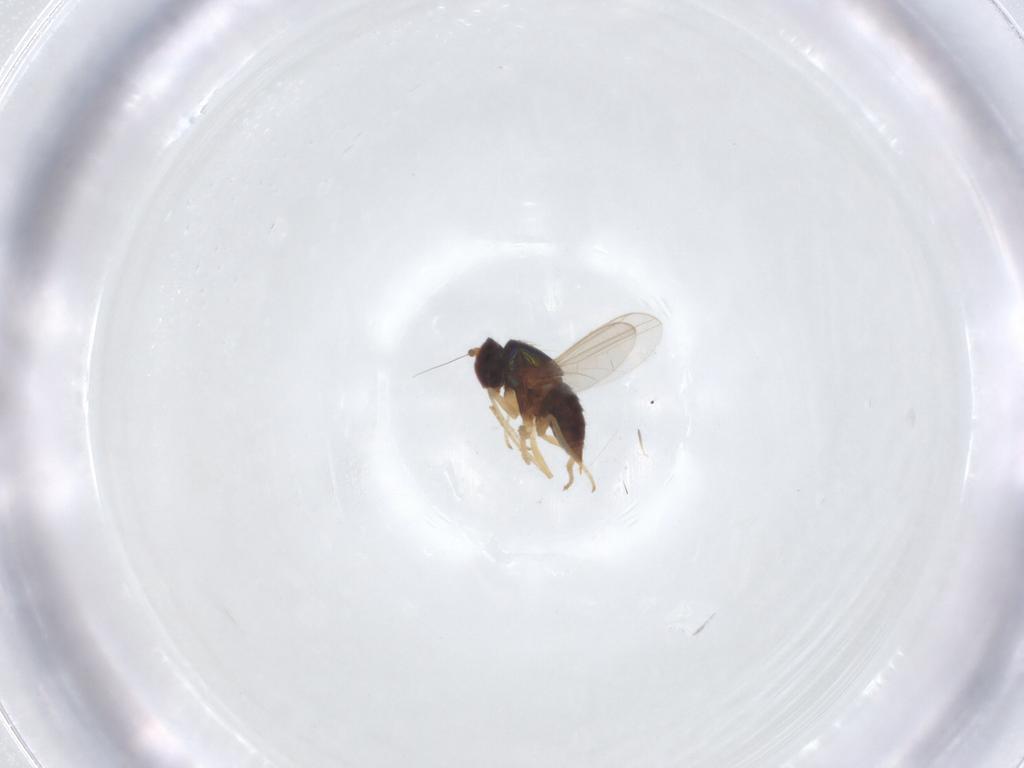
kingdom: Animalia
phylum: Arthropoda
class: Insecta
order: Diptera
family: Dolichopodidae
